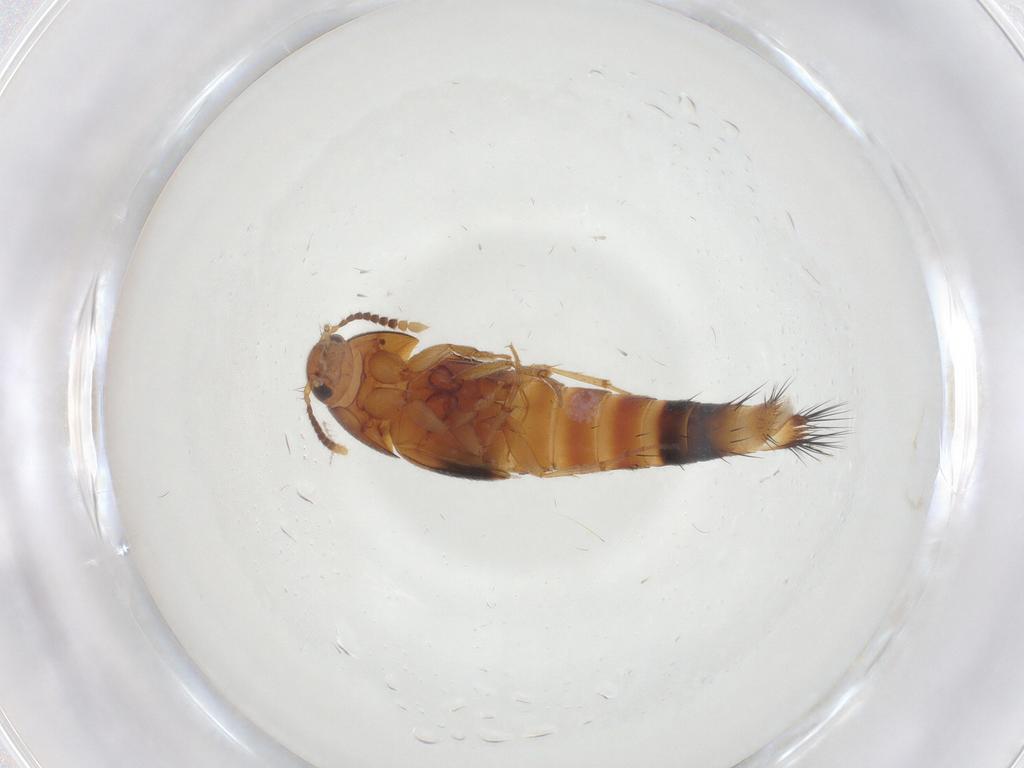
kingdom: Animalia
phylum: Arthropoda
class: Insecta
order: Coleoptera
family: Staphylinidae
